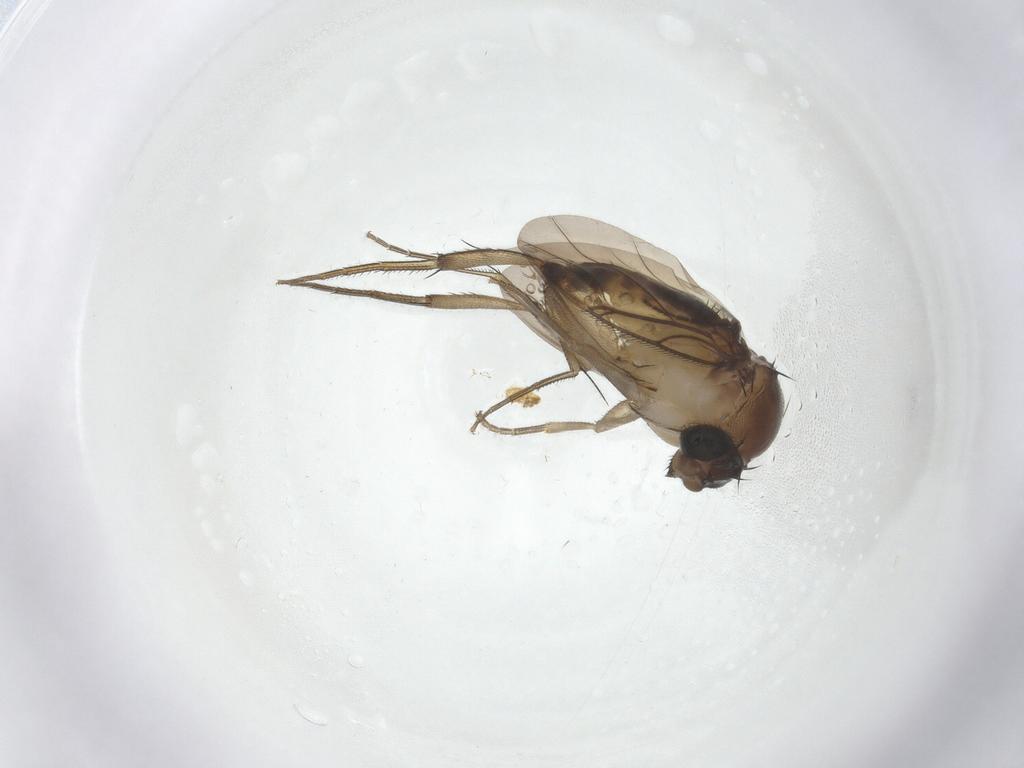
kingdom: Animalia
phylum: Arthropoda
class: Insecta
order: Diptera
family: Phoridae
